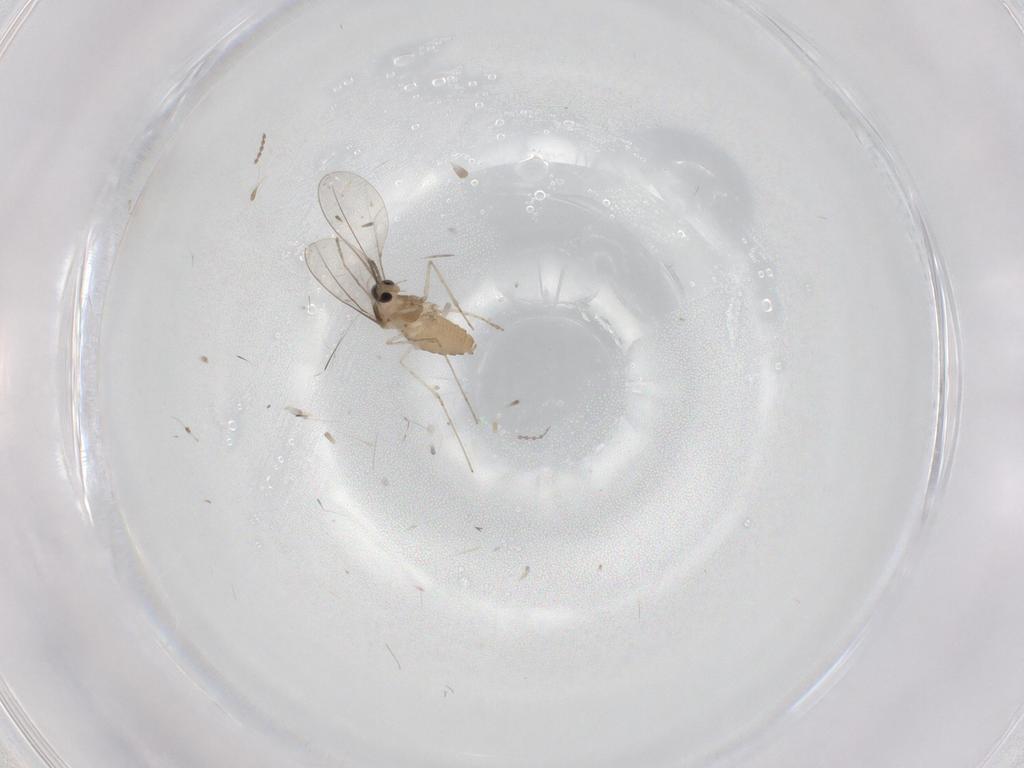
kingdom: Animalia
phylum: Arthropoda
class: Insecta
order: Diptera
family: Cecidomyiidae
